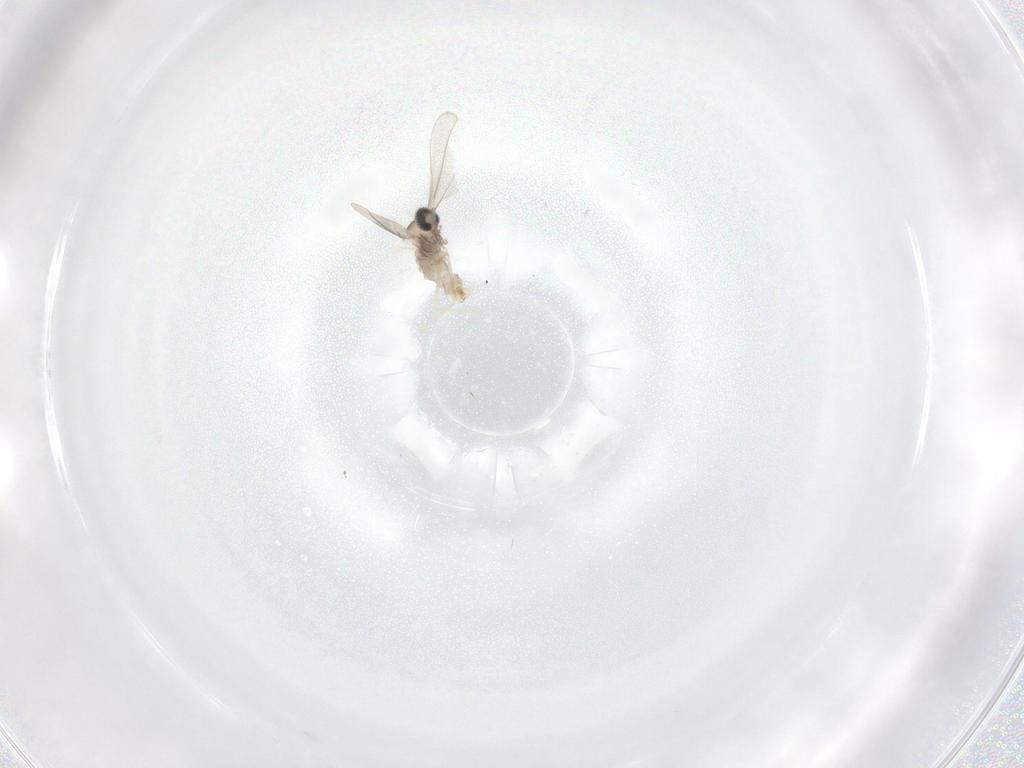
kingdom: Animalia
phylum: Arthropoda
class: Insecta
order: Diptera
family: Cecidomyiidae
